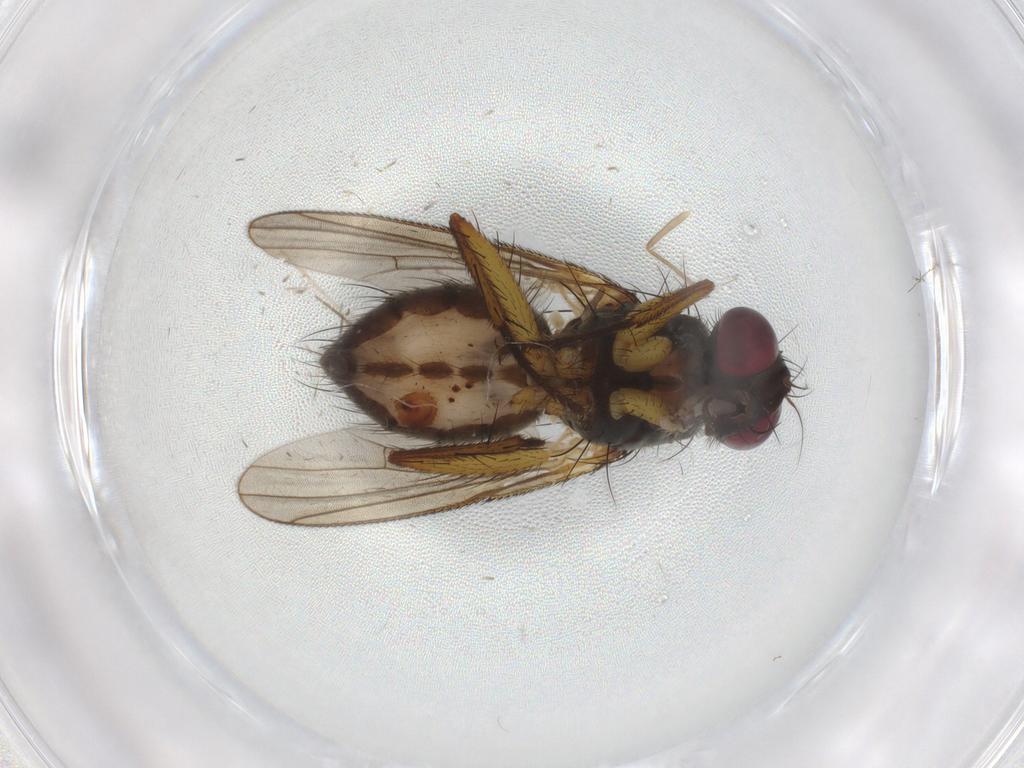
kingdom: Animalia
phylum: Arthropoda
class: Insecta
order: Diptera
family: Muscidae
